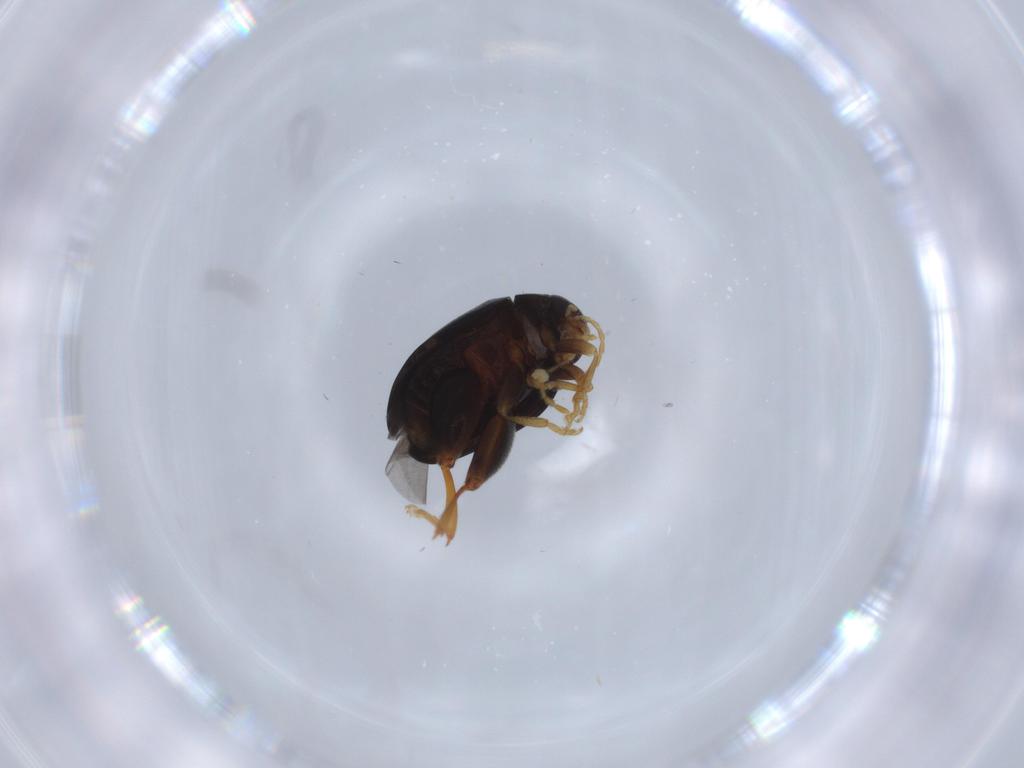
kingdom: Animalia
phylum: Arthropoda
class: Insecta
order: Coleoptera
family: Chrysomelidae
